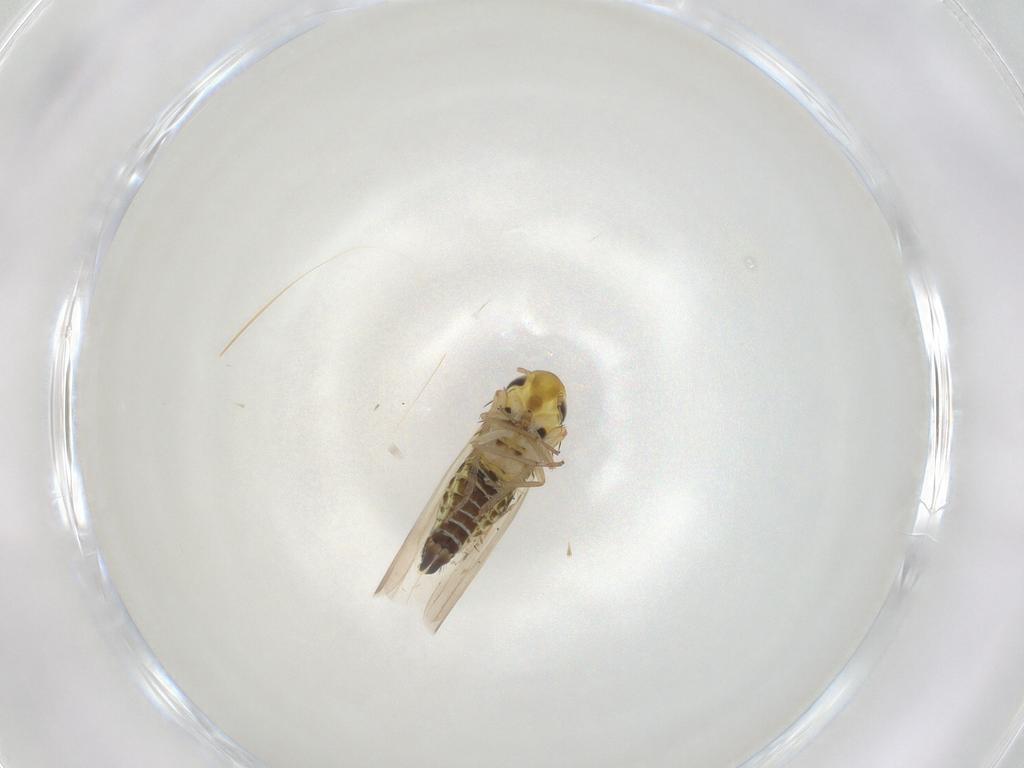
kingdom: Animalia
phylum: Arthropoda
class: Insecta
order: Hemiptera
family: Cicadellidae
